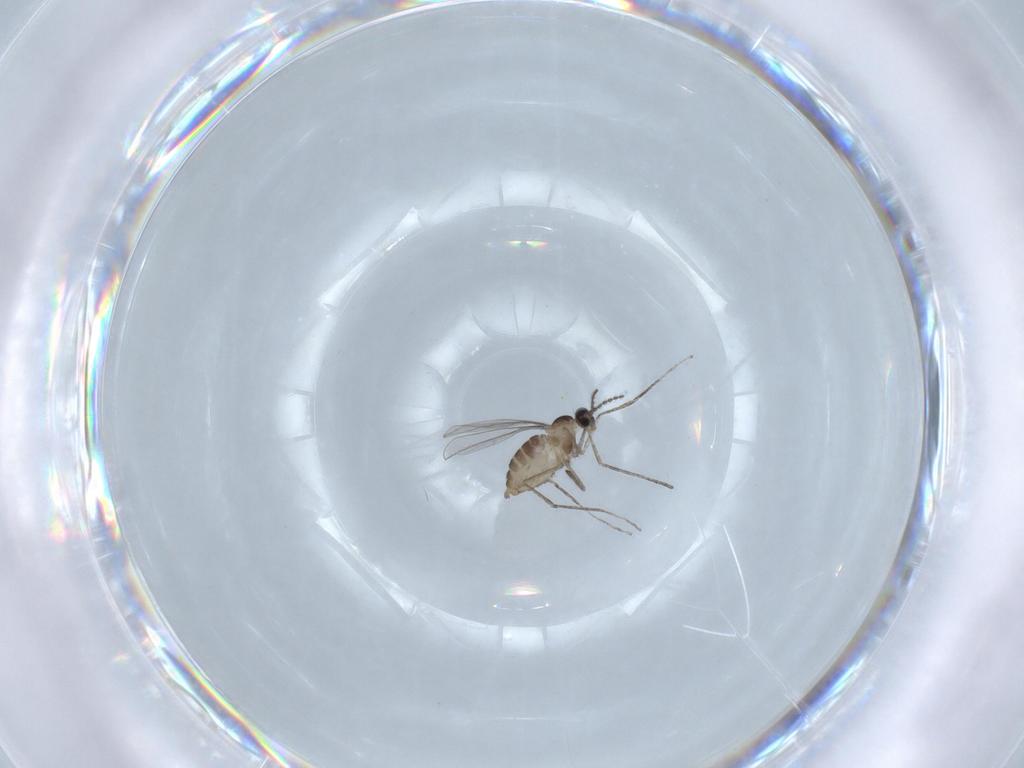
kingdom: Animalia
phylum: Arthropoda
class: Insecta
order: Diptera
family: Cecidomyiidae
